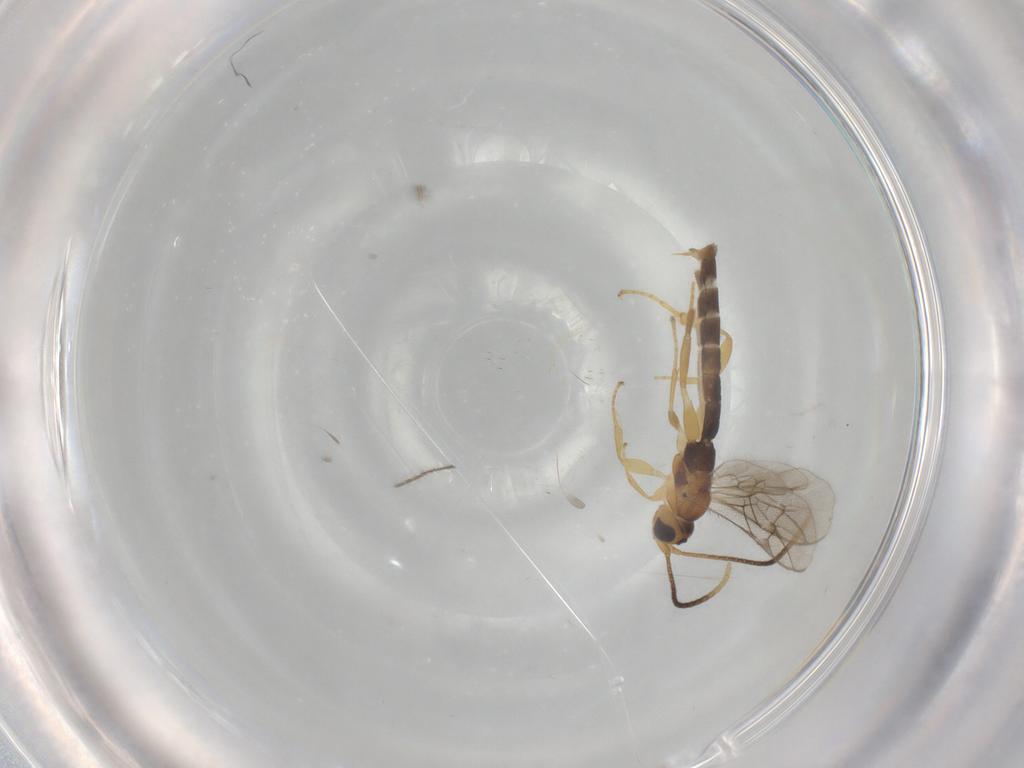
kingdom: Animalia
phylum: Arthropoda
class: Insecta
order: Hymenoptera
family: Ichneumonidae
